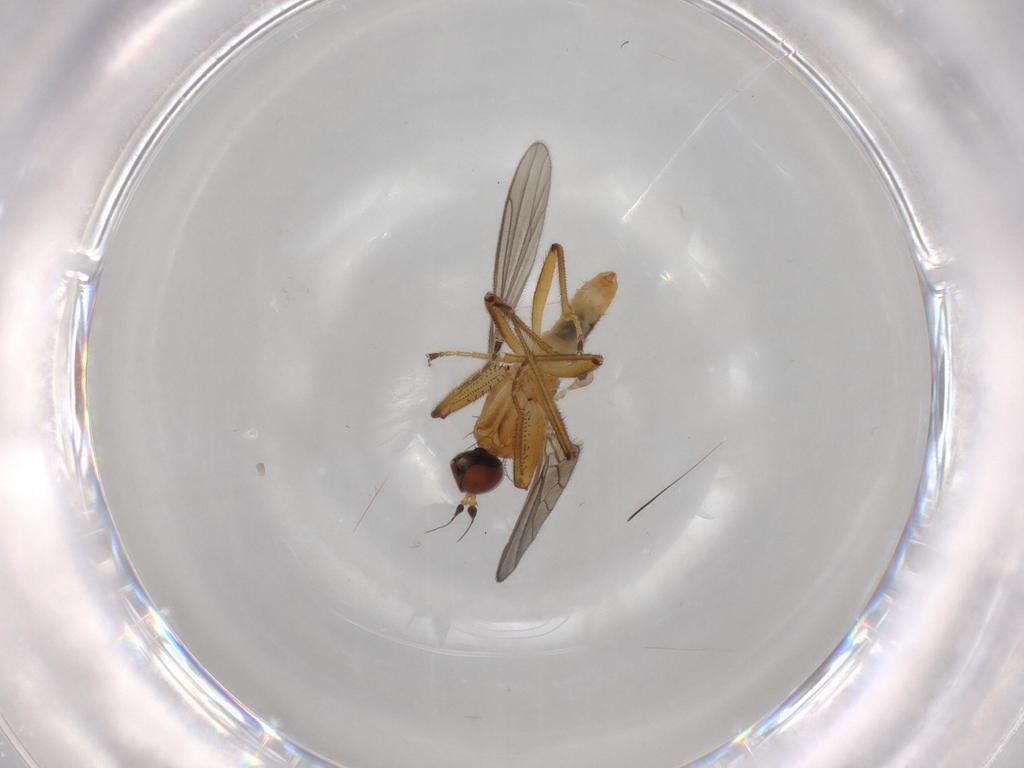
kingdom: Animalia
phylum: Arthropoda
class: Insecta
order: Diptera
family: Empididae
